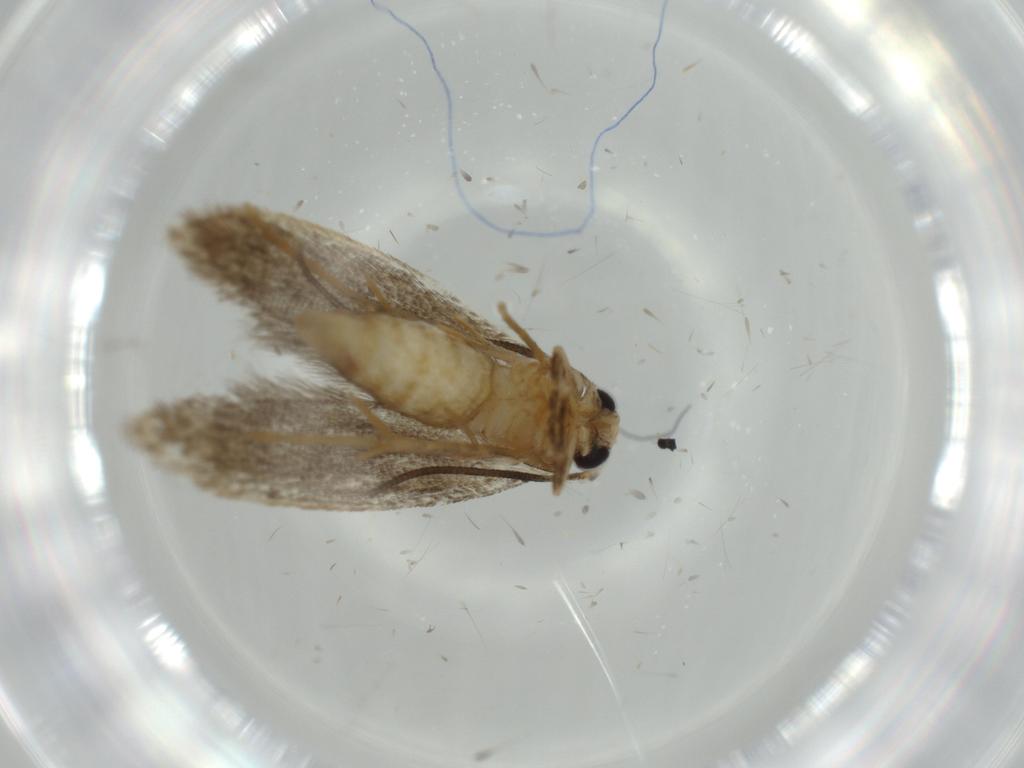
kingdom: Animalia
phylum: Arthropoda
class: Insecta
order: Lepidoptera
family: Tineidae
